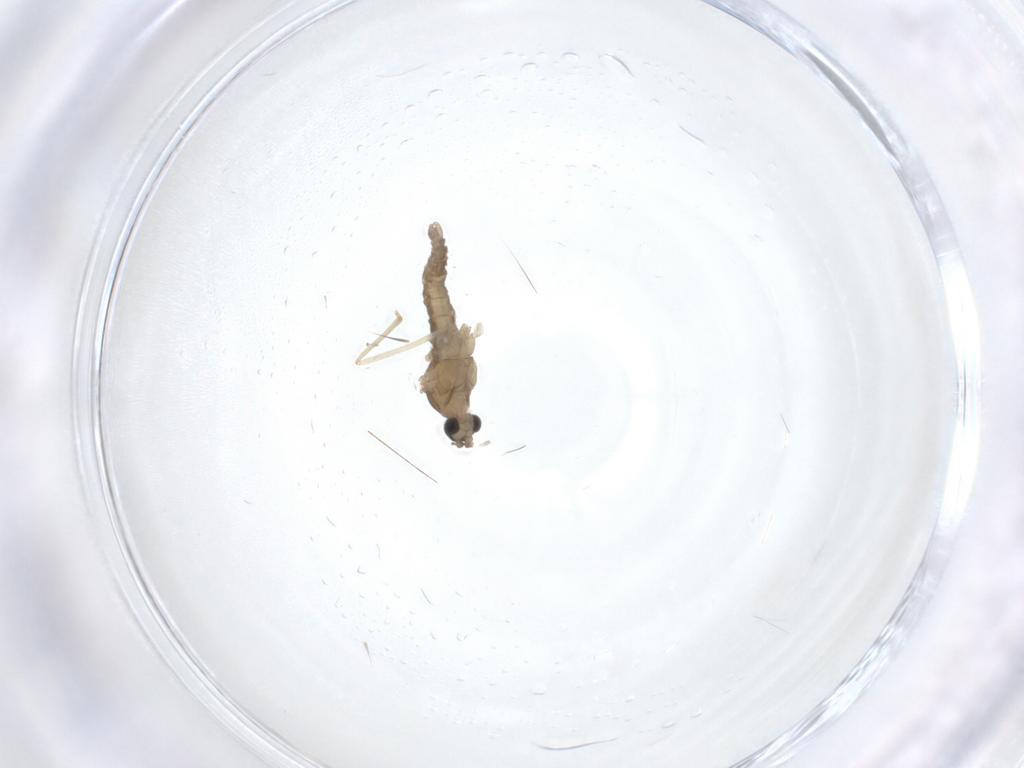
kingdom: Animalia
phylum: Arthropoda
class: Insecta
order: Diptera
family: Cecidomyiidae
